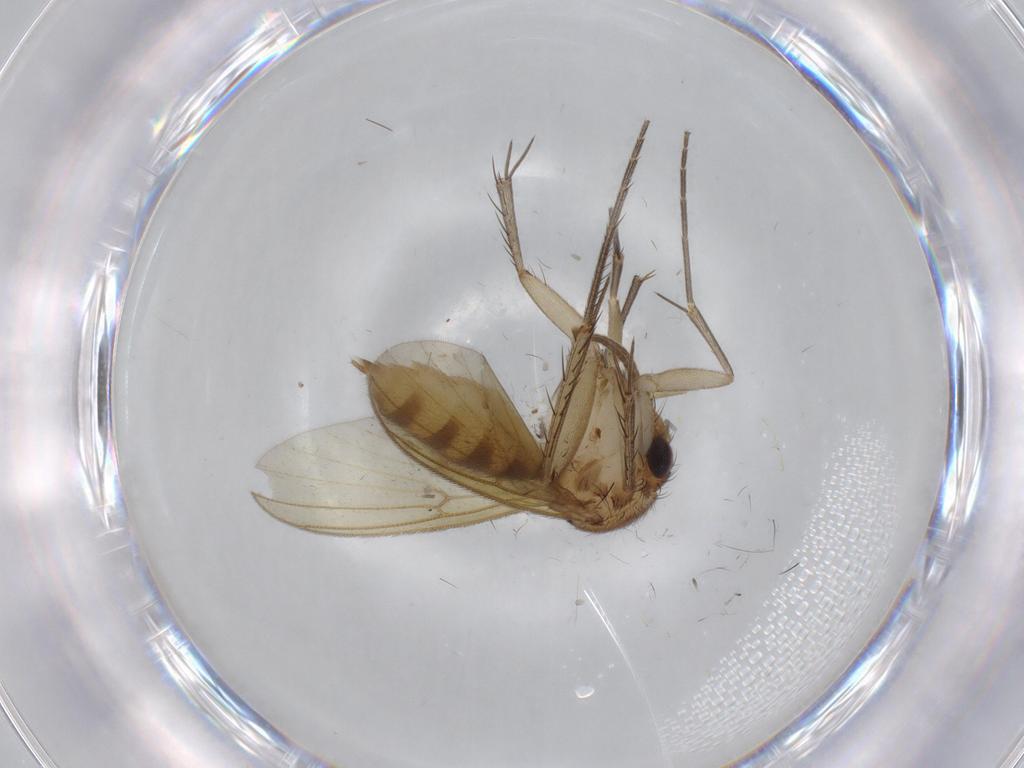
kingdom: Animalia
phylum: Arthropoda
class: Insecta
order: Diptera
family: Mycetophilidae
